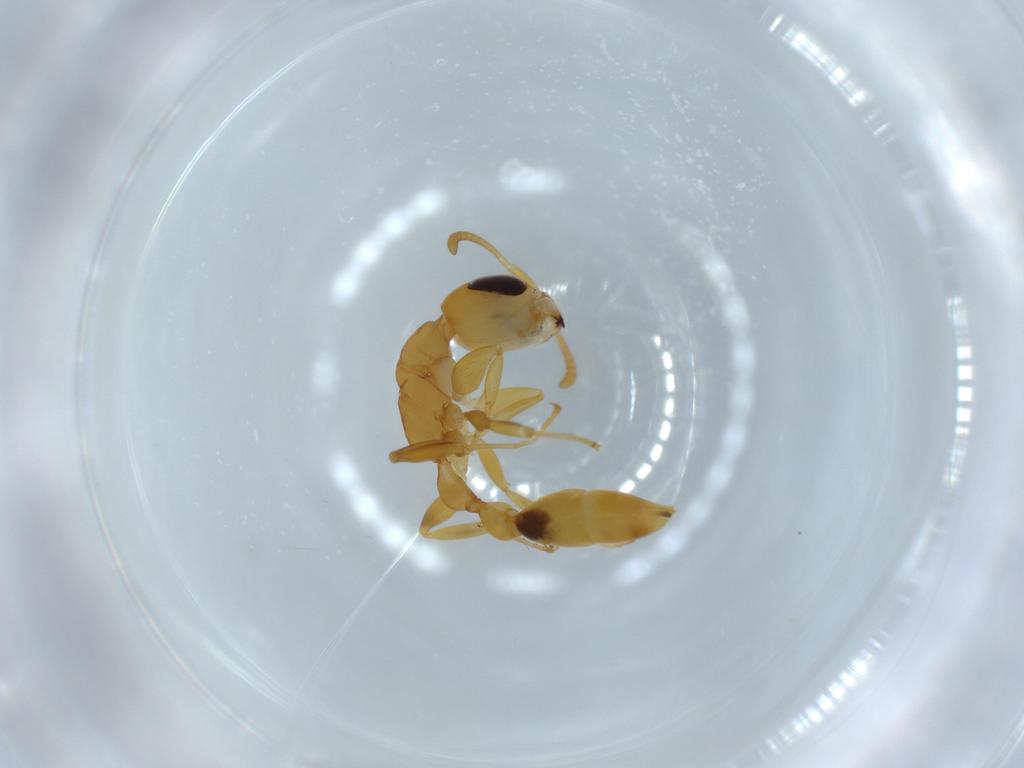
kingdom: Animalia
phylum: Arthropoda
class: Insecta
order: Hymenoptera
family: Formicidae
